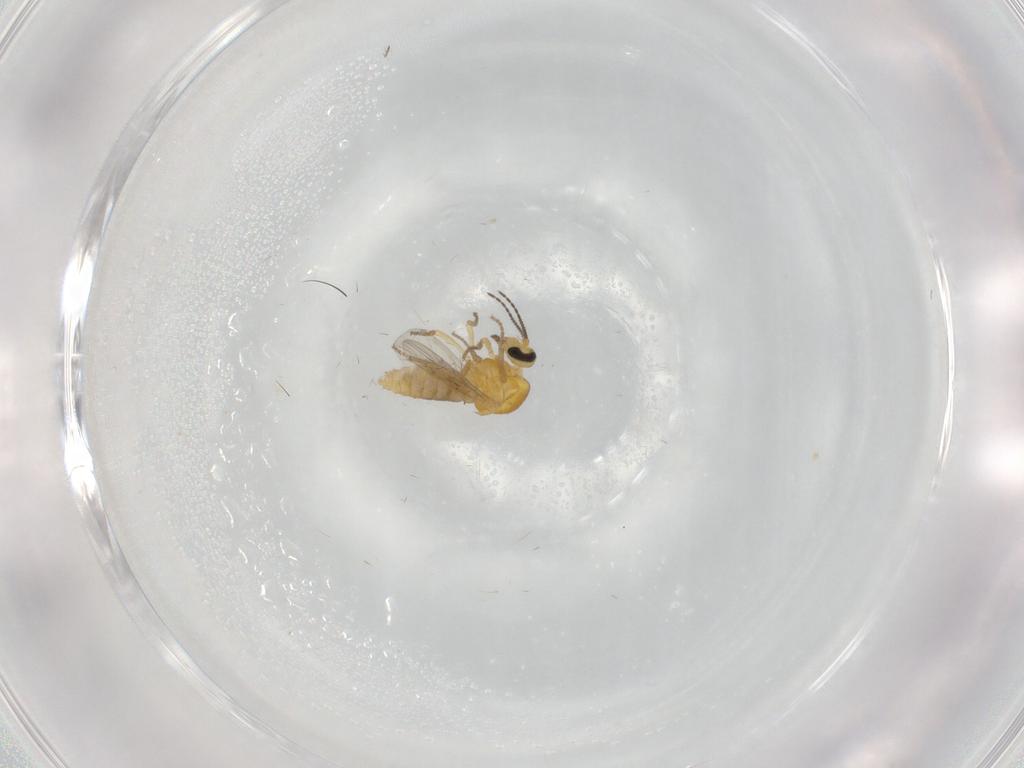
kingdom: Animalia
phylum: Arthropoda
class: Insecta
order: Diptera
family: Ceratopogonidae
